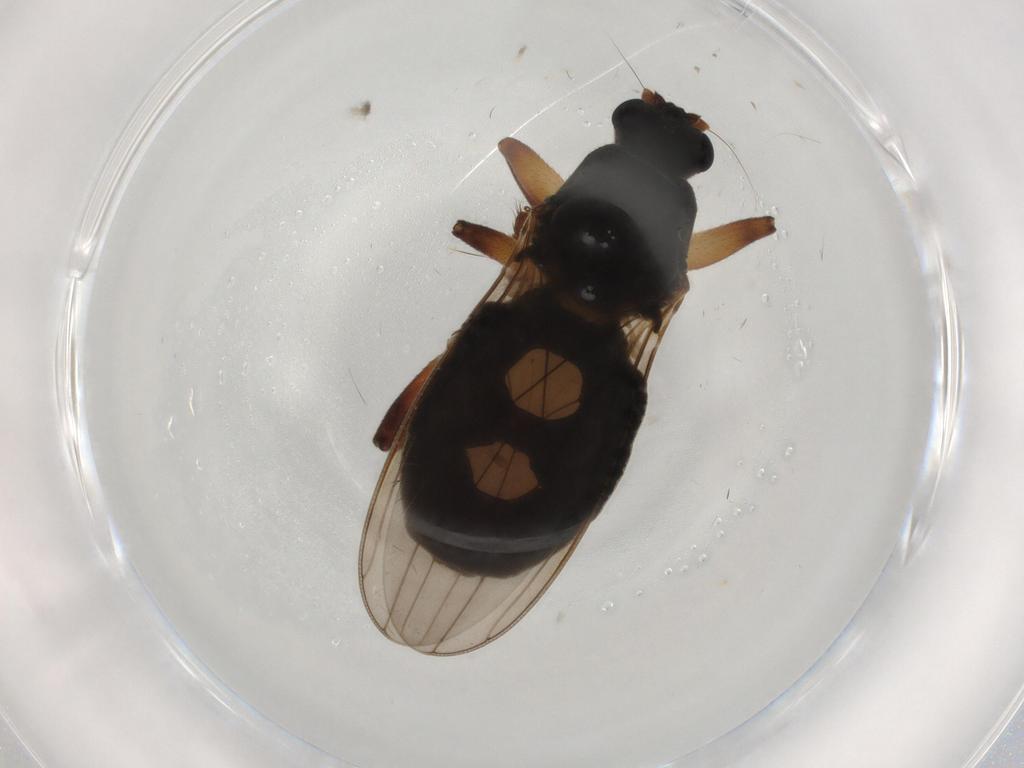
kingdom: Animalia
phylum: Arthropoda
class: Insecta
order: Diptera
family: Sphaeroceridae
